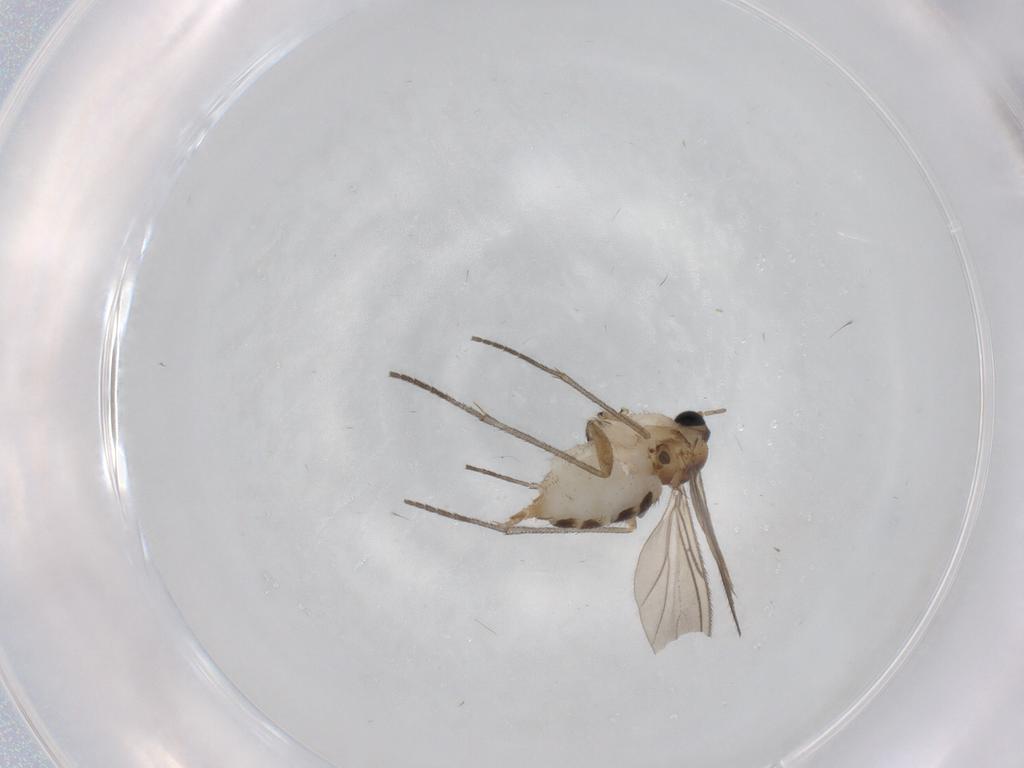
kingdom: Animalia
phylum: Arthropoda
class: Insecta
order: Diptera
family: Sciaridae
